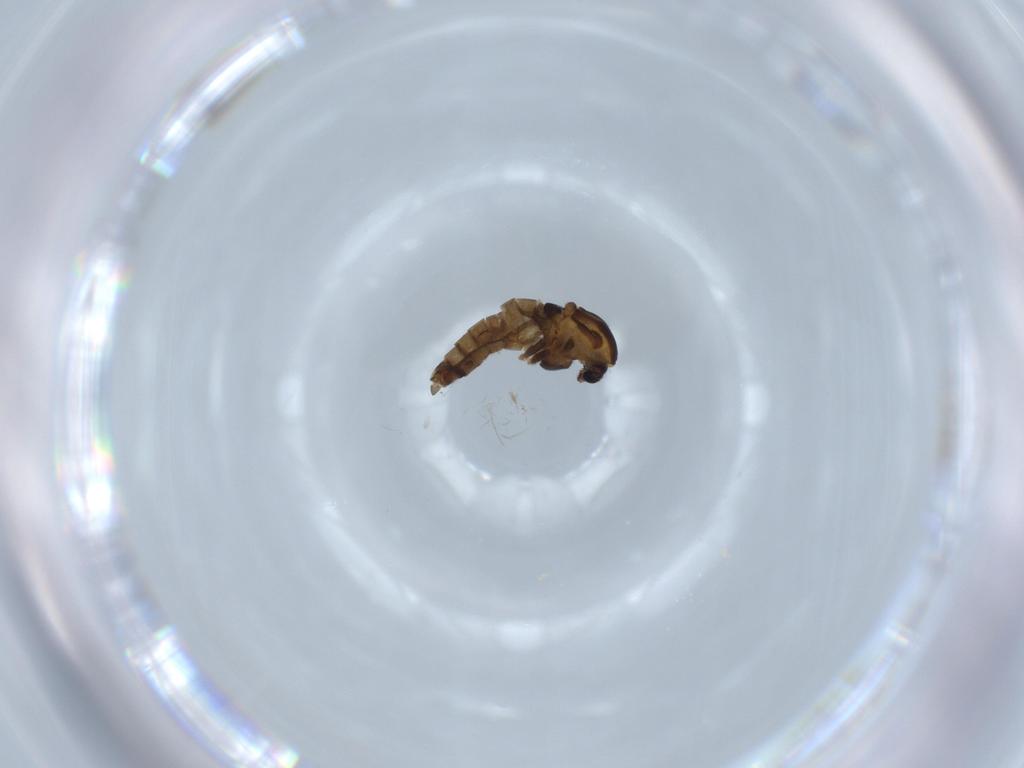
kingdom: Animalia
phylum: Arthropoda
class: Insecta
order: Diptera
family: Chironomidae
